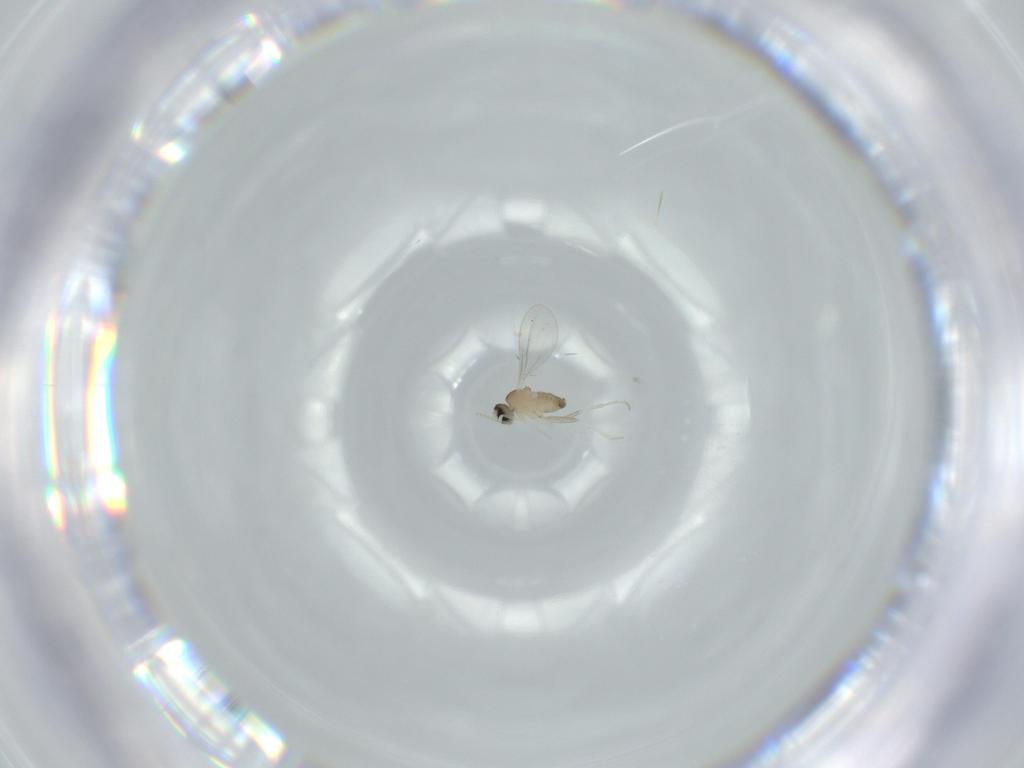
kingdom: Animalia
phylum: Arthropoda
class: Insecta
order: Diptera
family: Cecidomyiidae
